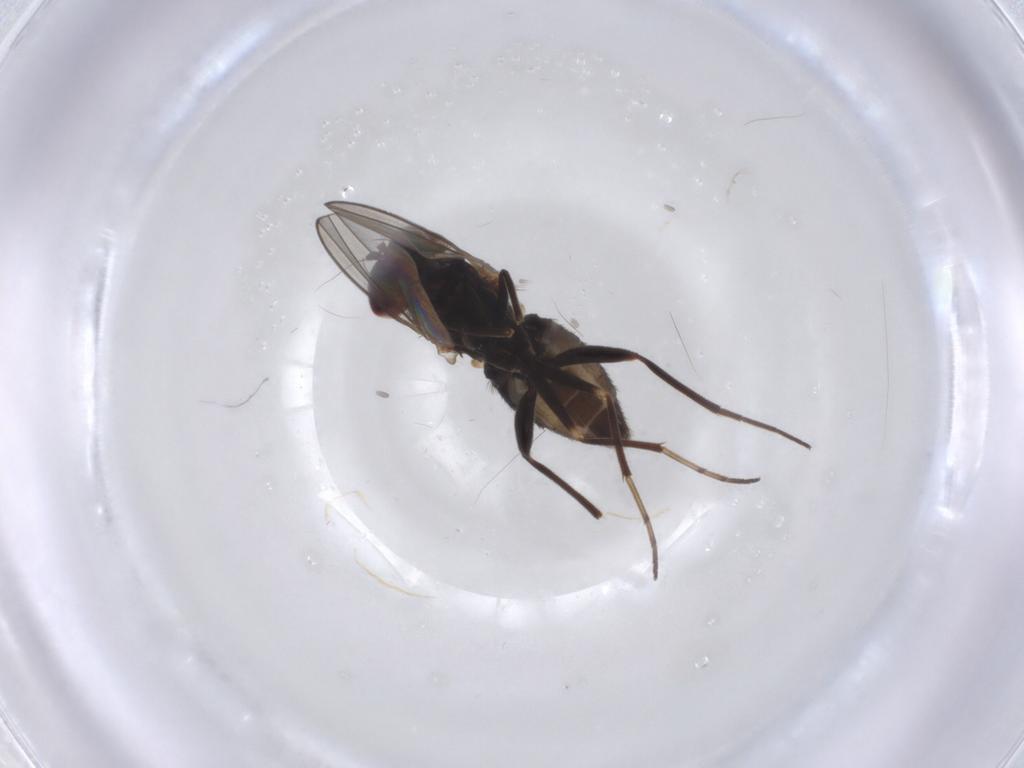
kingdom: Animalia
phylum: Arthropoda
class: Insecta
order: Diptera
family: Dolichopodidae
